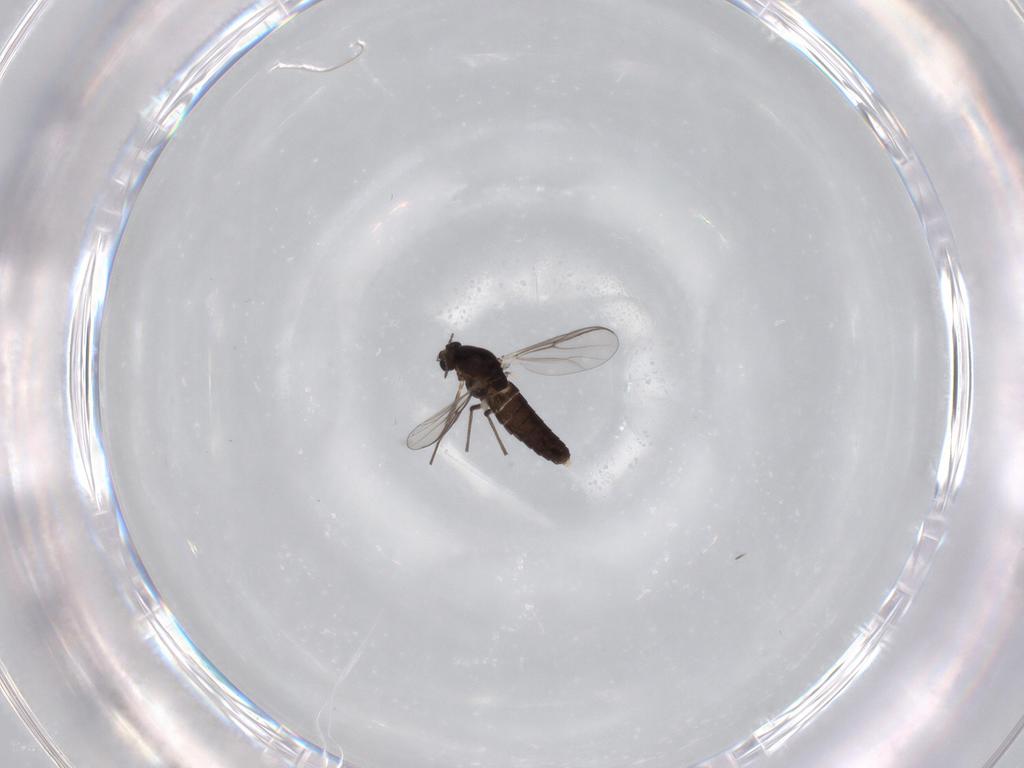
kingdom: Animalia
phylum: Arthropoda
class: Insecta
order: Diptera
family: Chironomidae
